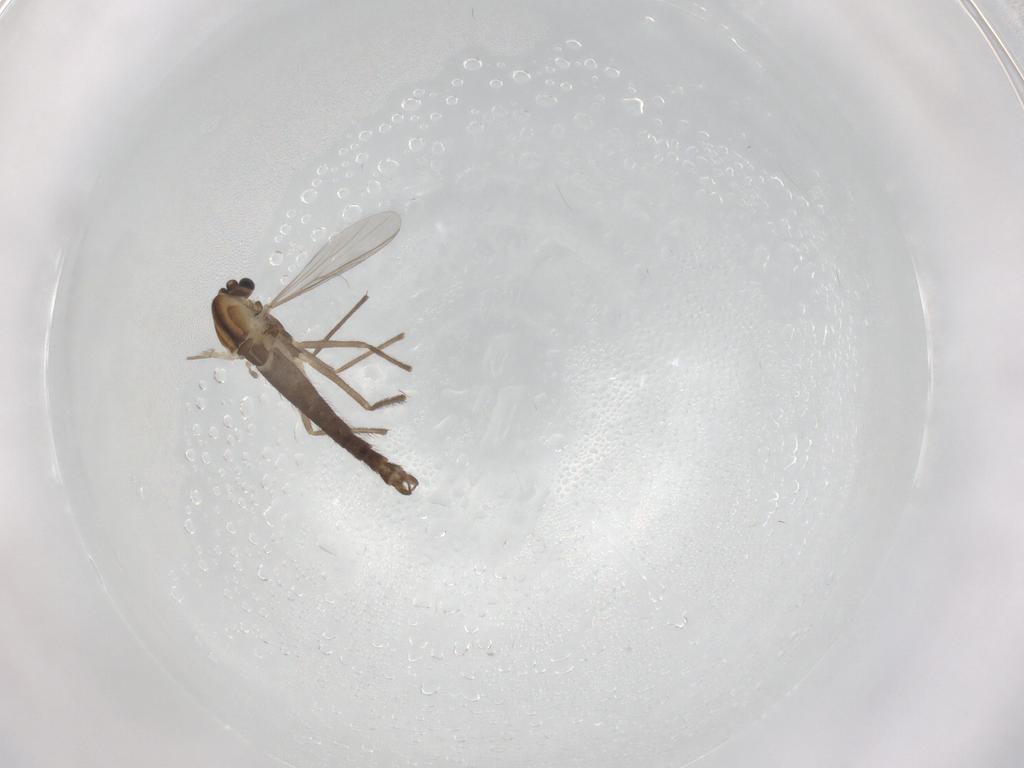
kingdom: Animalia
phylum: Arthropoda
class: Insecta
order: Diptera
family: Chironomidae
